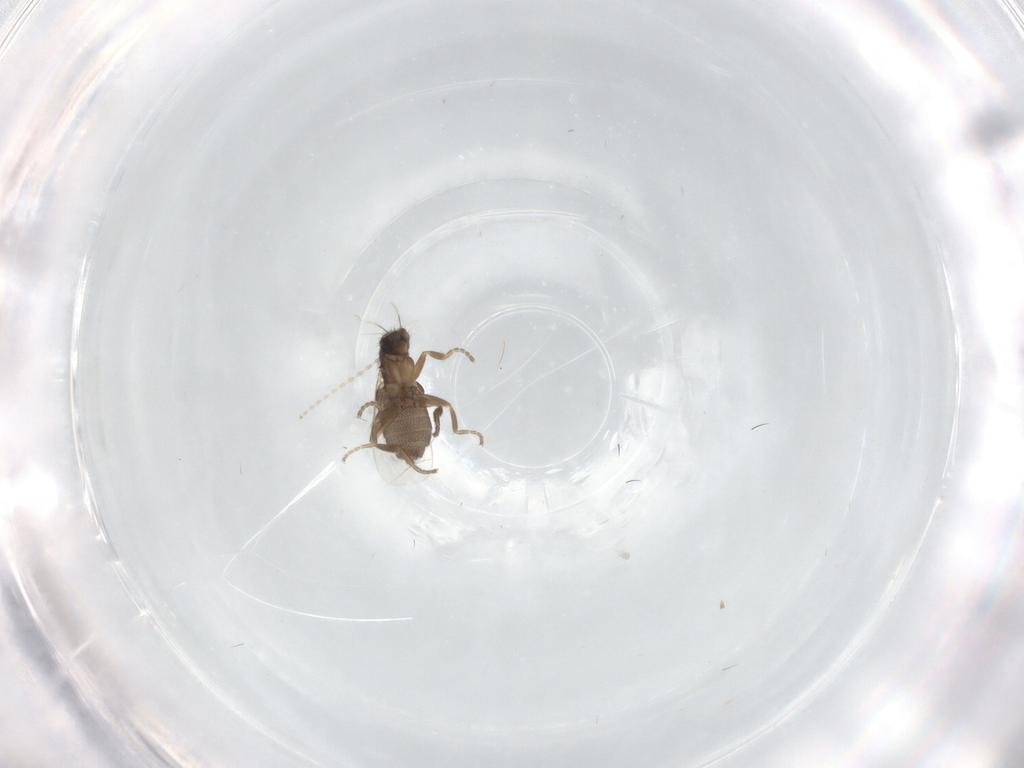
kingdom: Animalia
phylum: Arthropoda
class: Insecta
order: Diptera
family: Phoridae
